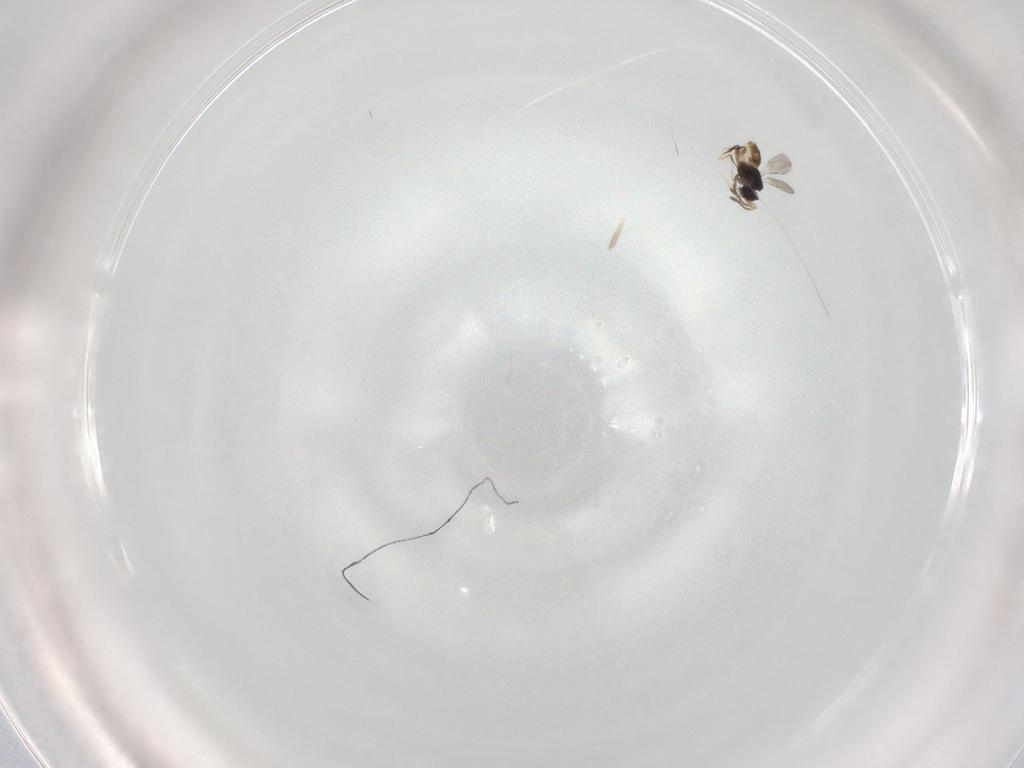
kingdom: Animalia
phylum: Arthropoda
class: Insecta
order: Hymenoptera
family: Ceraphronidae
